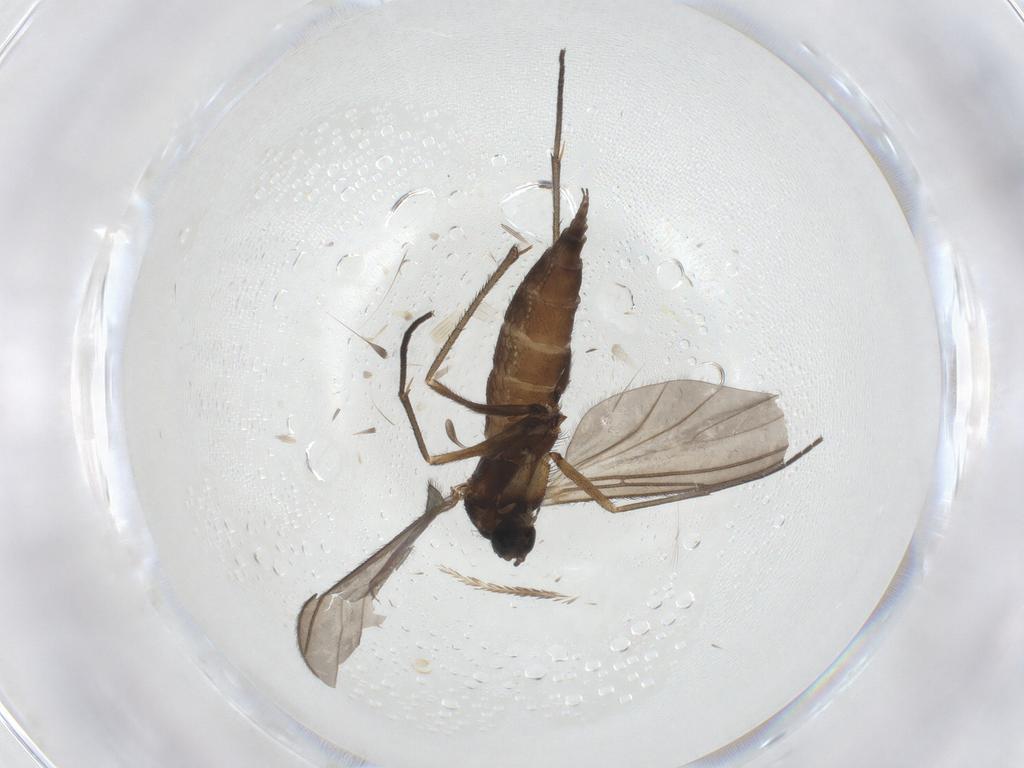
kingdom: Animalia
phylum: Arthropoda
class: Insecta
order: Diptera
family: Chironomidae
